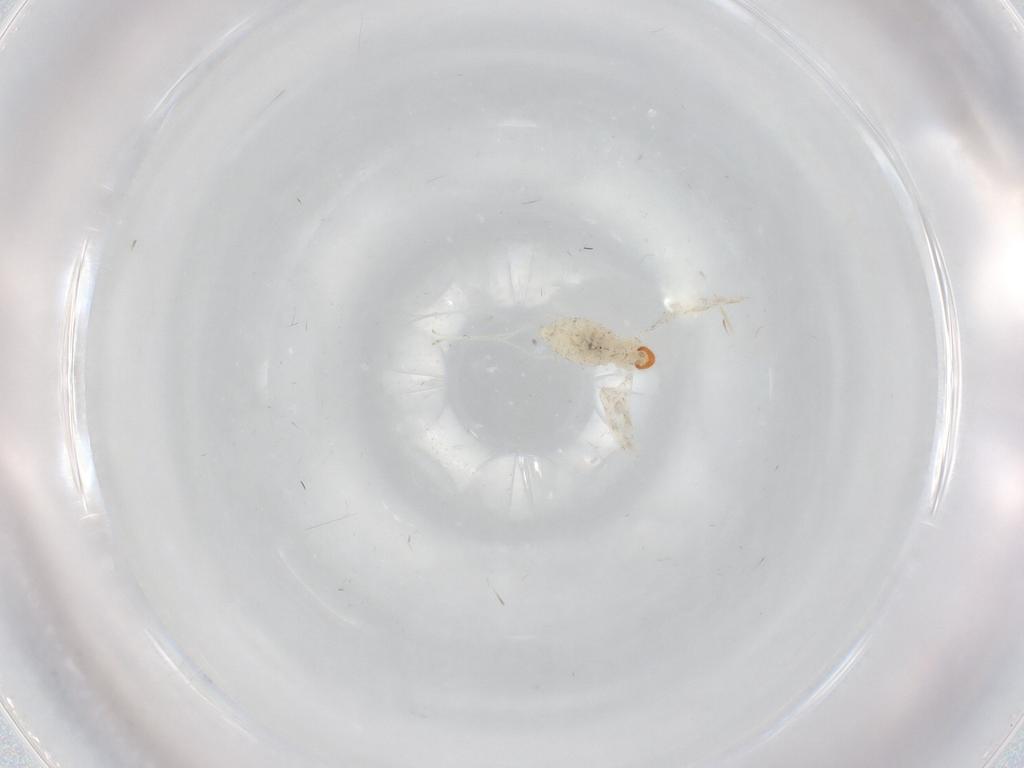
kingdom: Animalia
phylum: Arthropoda
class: Insecta
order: Diptera
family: Cecidomyiidae
